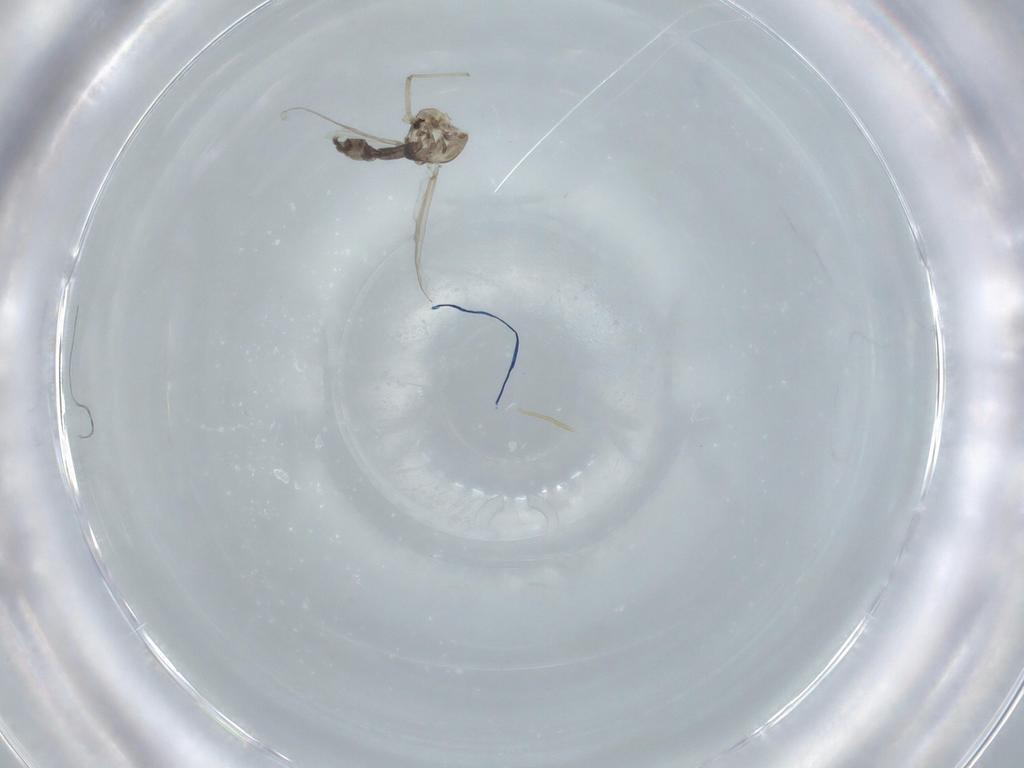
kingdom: Animalia
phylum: Arthropoda
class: Insecta
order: Diptera
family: Chironomidae
